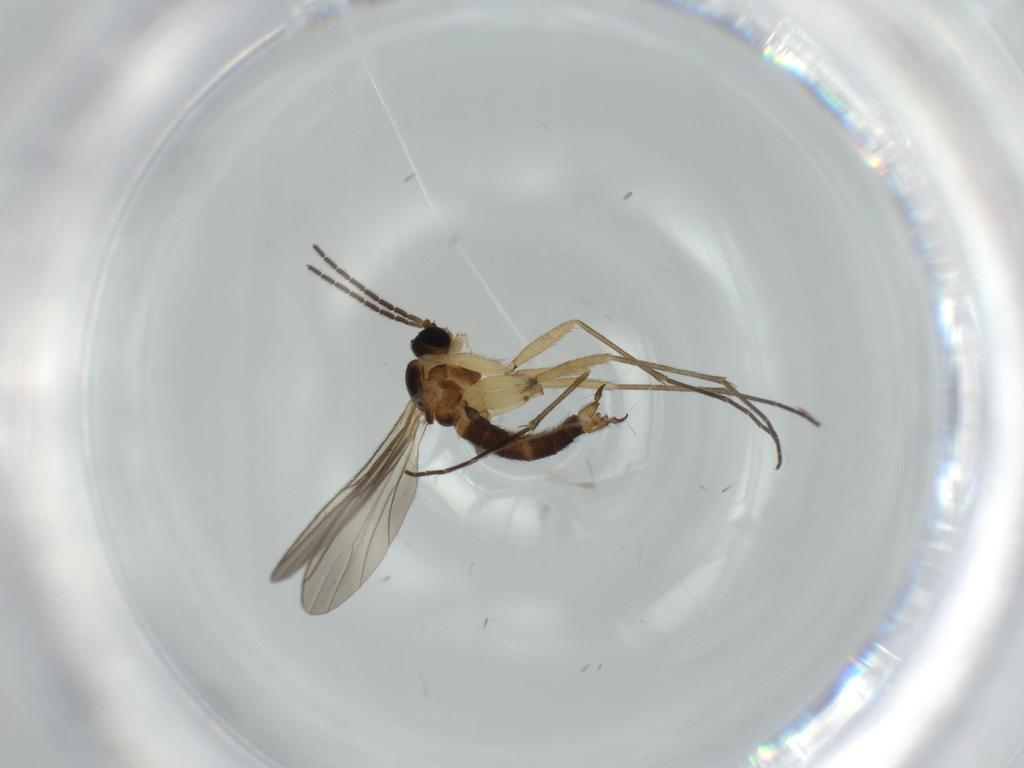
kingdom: Animalia
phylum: Arthropoda
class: Insecta
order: Diptera
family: Sciaridae
